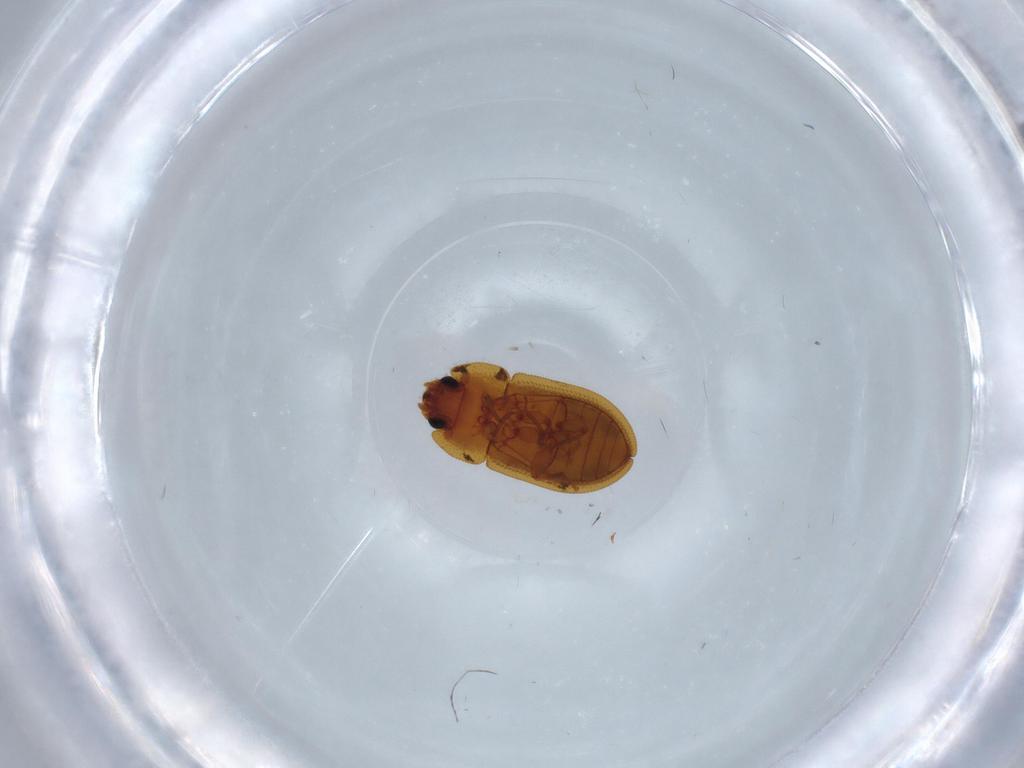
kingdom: Animalia
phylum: Arthropoda
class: Insecta
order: Coleoptera
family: Zopheridae
